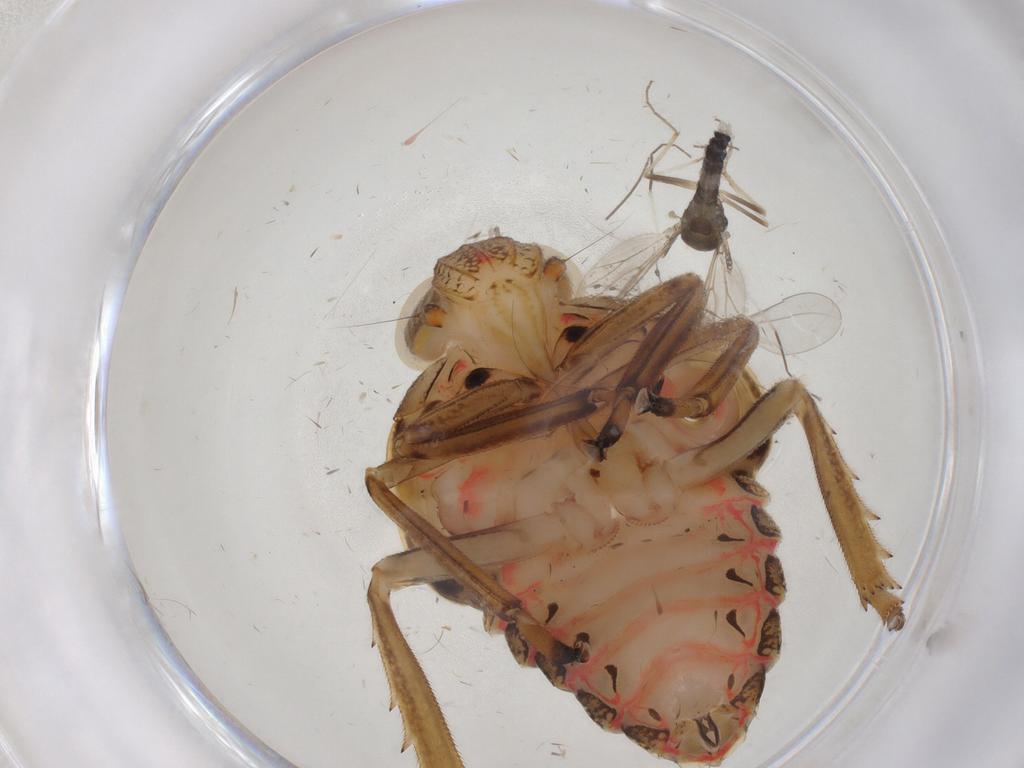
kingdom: Animalia
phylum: Arthropoda
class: Insecta
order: Diptera
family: Chironomidae
